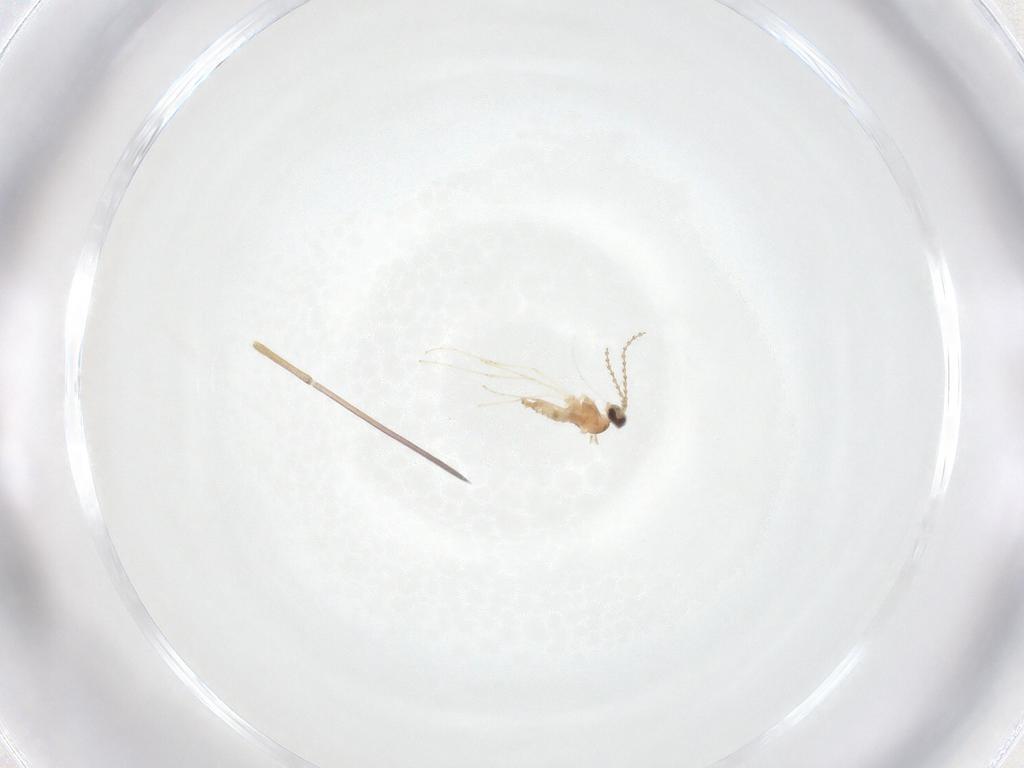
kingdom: Animalia
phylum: Arthropoda
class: Insecta
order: Diptera
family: Cecidomyiidae
